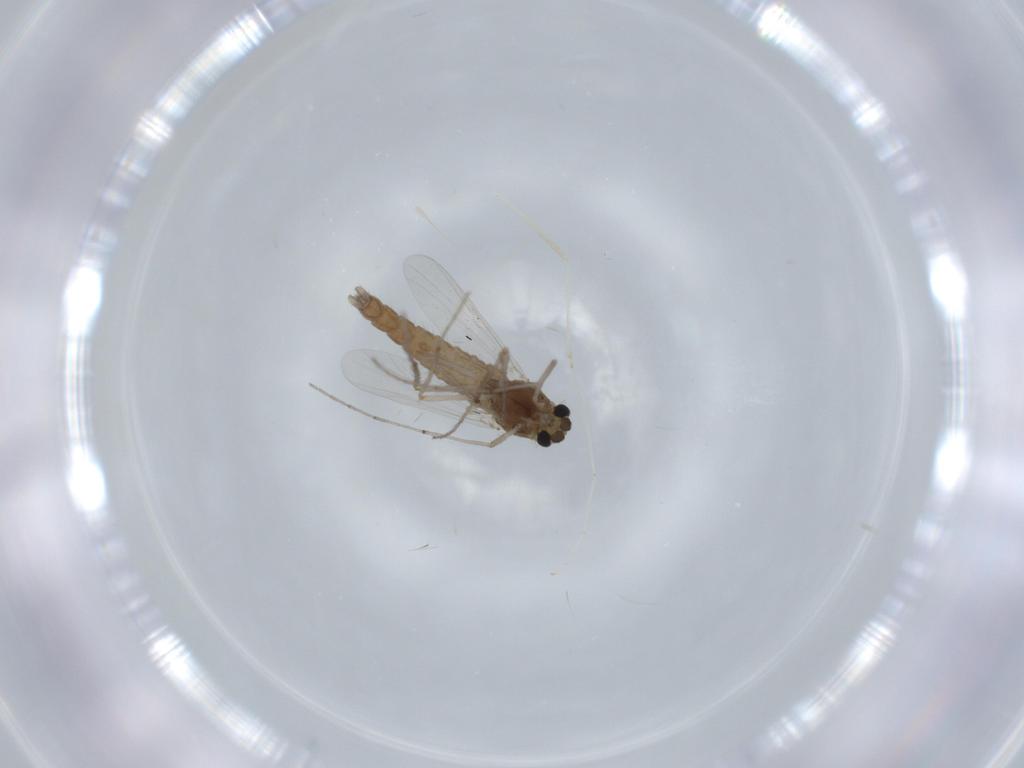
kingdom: Animalia
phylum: Arthropoda
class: Insecta
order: Diptera
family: Chironomidae
